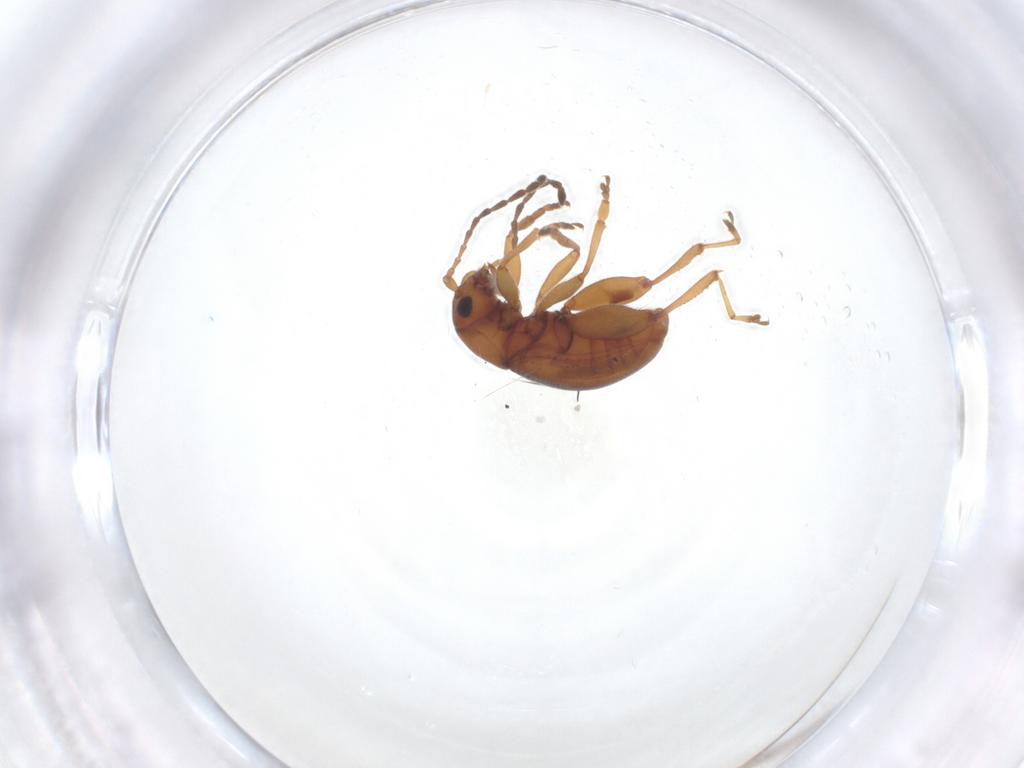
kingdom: Animalia
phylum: Arthropoda
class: Insecta
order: Coleoptera
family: Chrysomelidae
